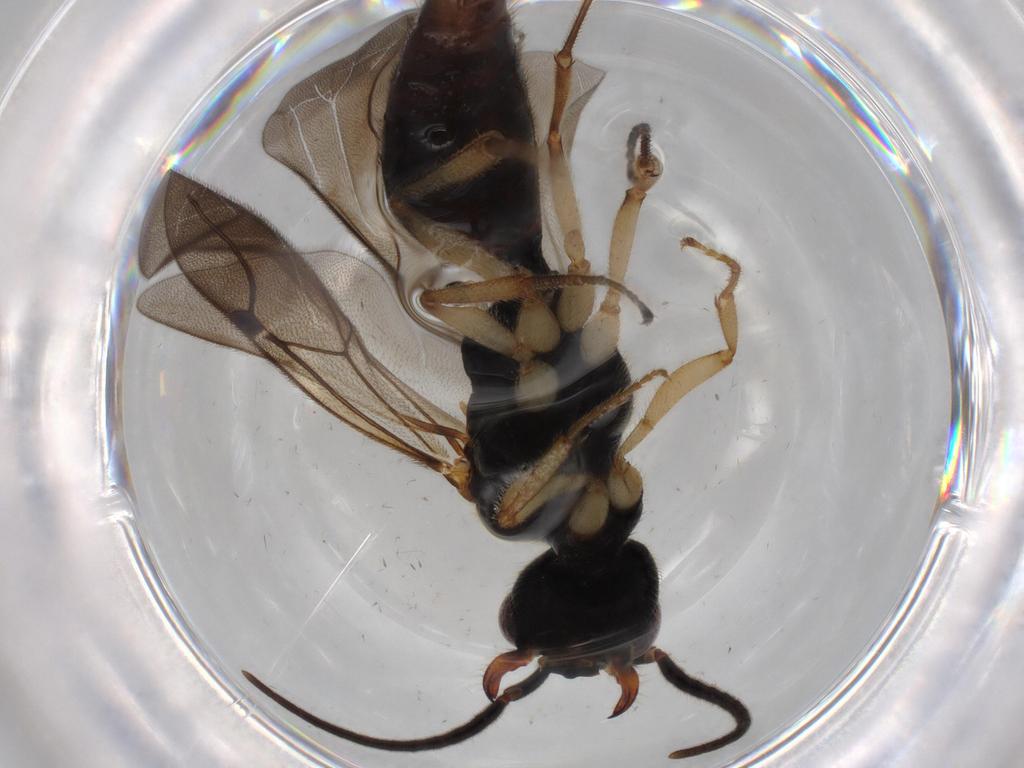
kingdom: Animalia
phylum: Arthropoda
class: Insecta
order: Hymenoptera
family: Bethylidae
